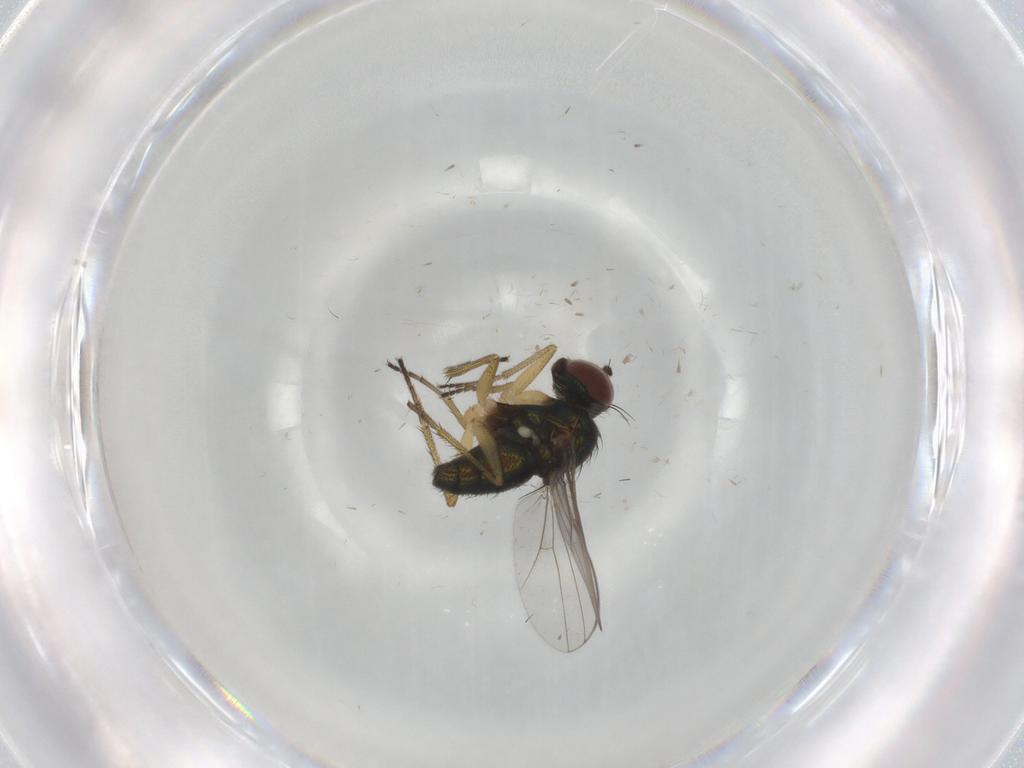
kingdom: Animalia
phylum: Arthropoda
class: Insecta
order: Diptera
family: Dolichopodidae
